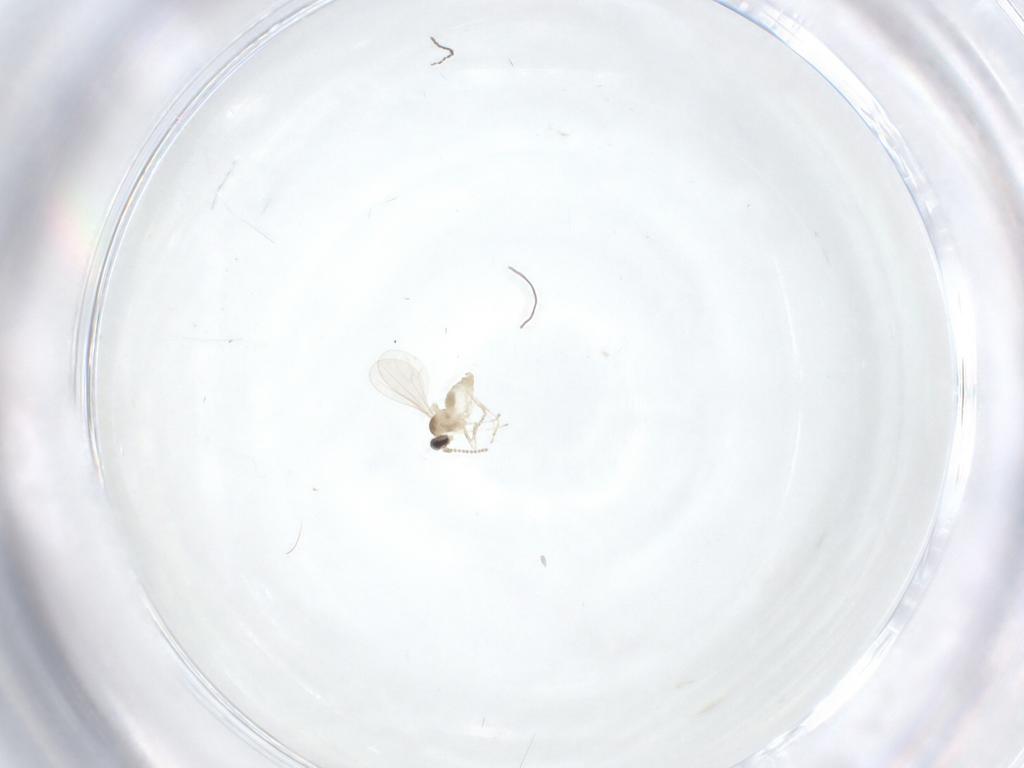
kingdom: Animalia
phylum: Arthropoda
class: Insecta
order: Diptera
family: Cecidomyiidae
